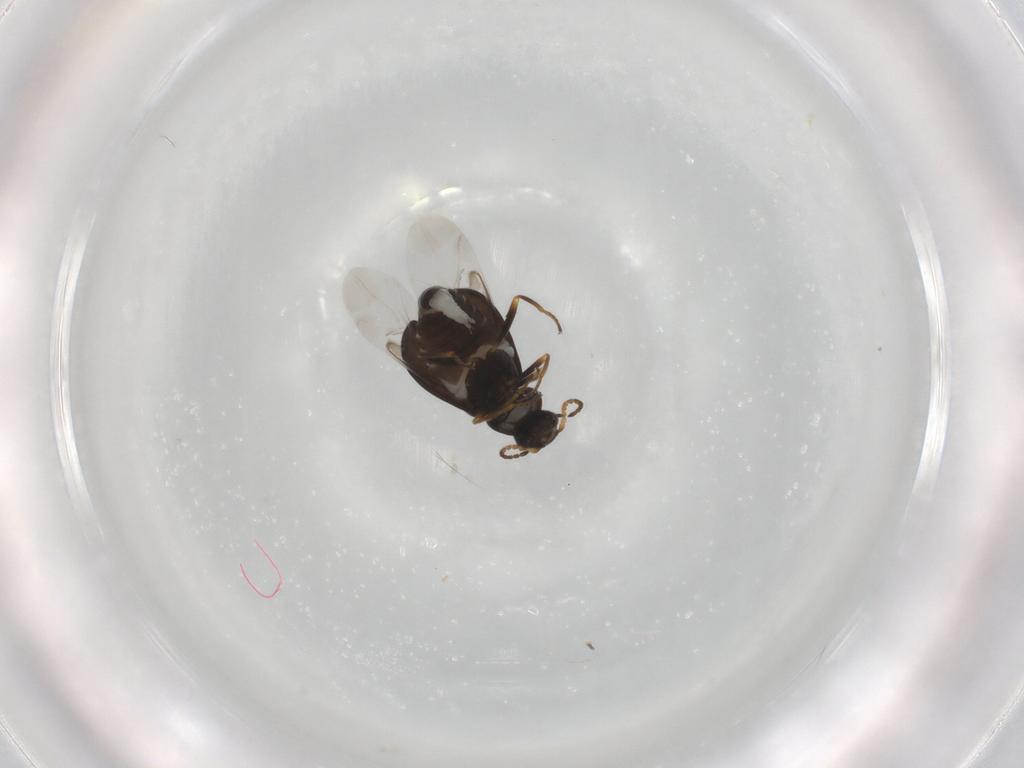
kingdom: Animalia
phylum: Arthropoda
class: Insecta
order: Coleoptera
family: Melyridae
